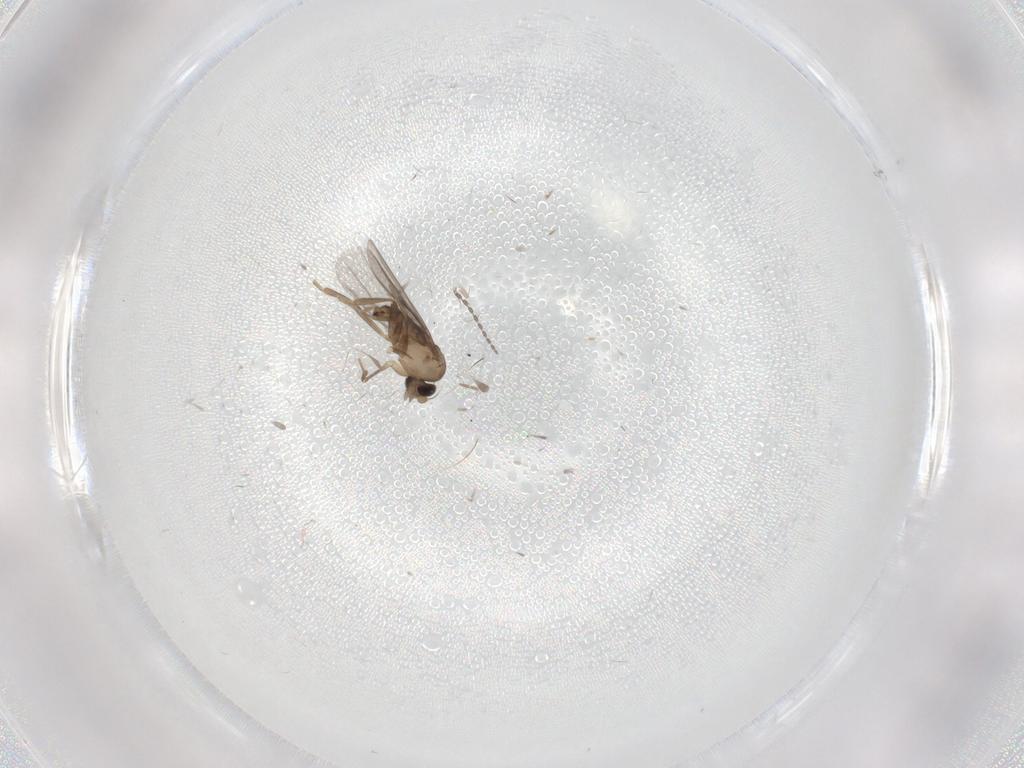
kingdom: Animalia
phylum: Arthropoda
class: Insecta
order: Diptera
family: Cecidomyiidae
